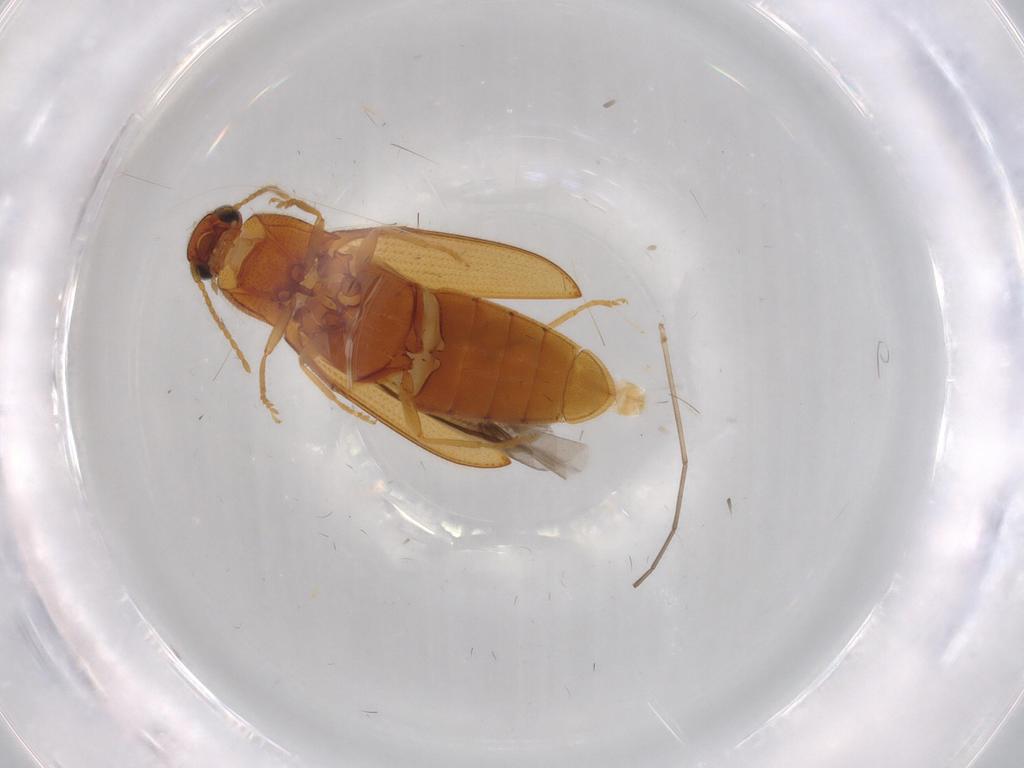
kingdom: Animalia
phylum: Arthropoda
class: Insecta
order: Coleoptera
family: Elateridae
